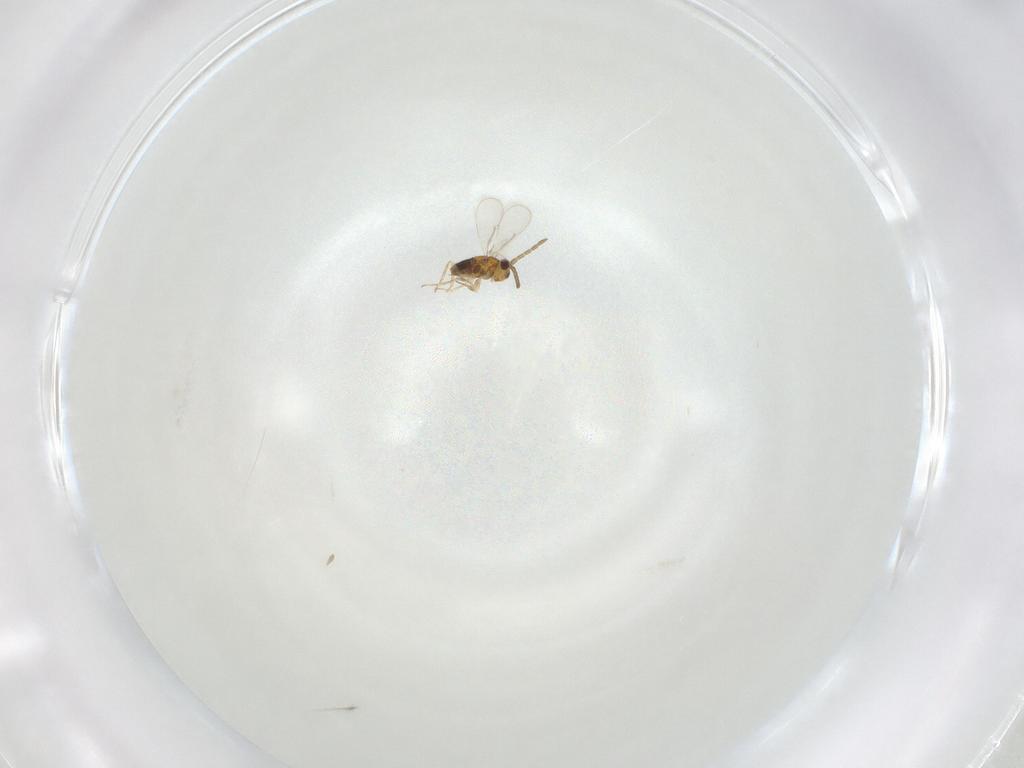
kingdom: Animalia
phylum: Arthropoda
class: Insecta
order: Hymenoptera
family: Aphelinidae
